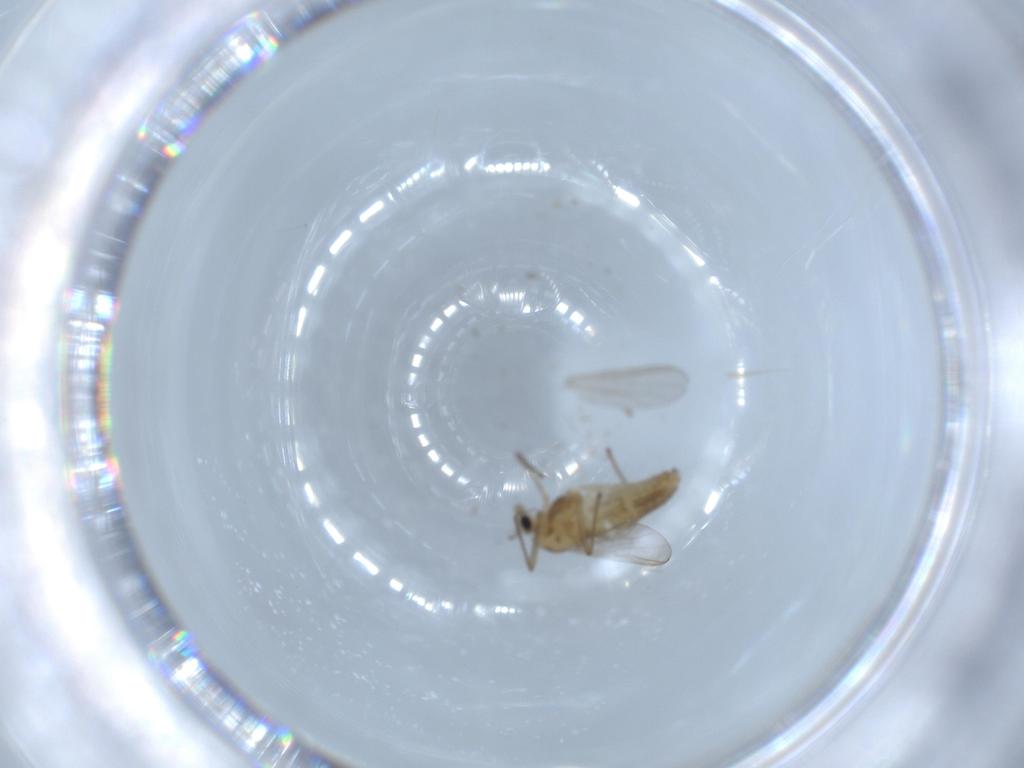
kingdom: Animalia
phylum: Arthropoda
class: Insecta
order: Diptera
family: Chironomidae
